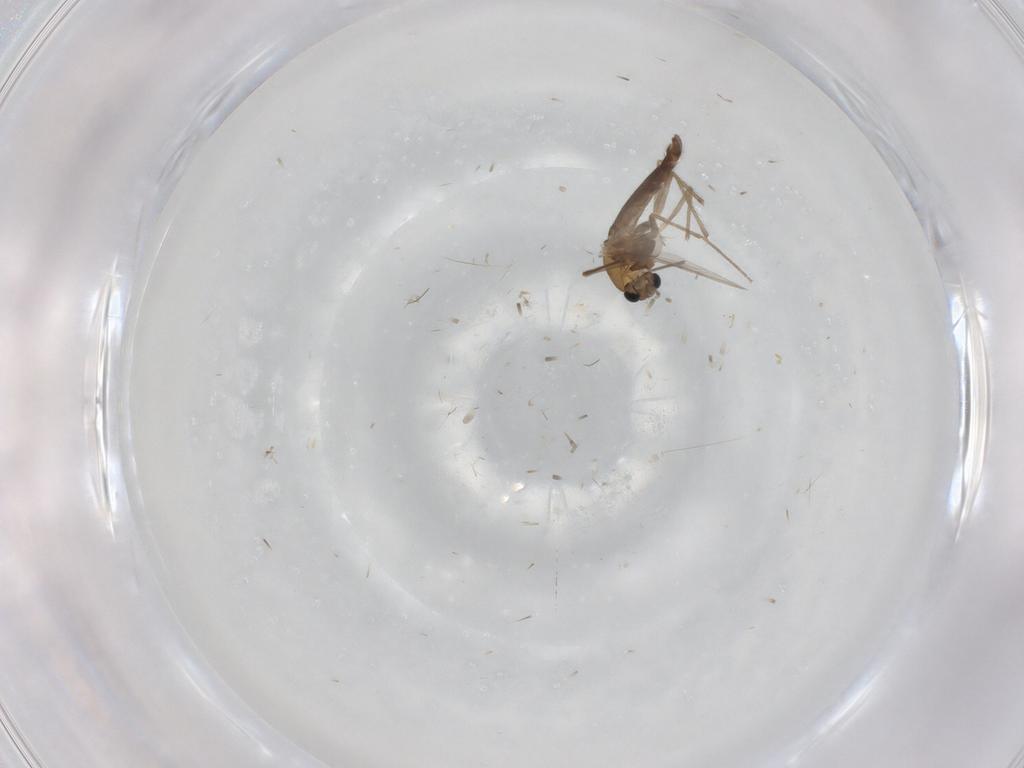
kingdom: Animalia
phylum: Arthropoda
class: Insecta
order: Diptera
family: Chironomidae
